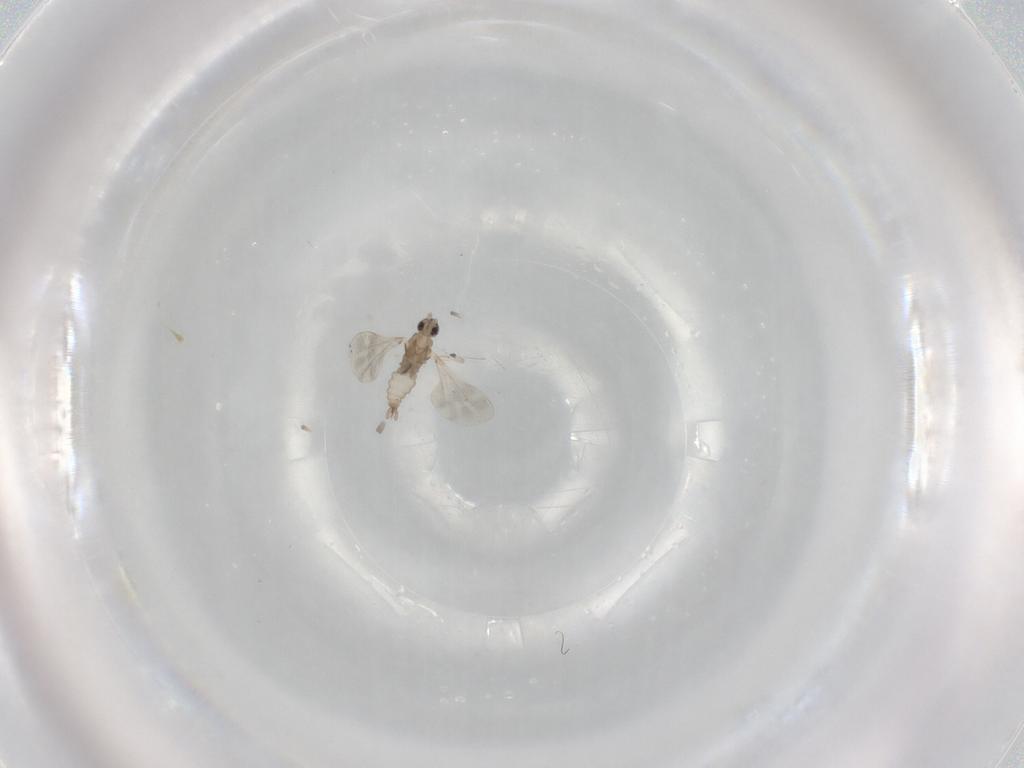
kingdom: Animalia
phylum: Arthropoda
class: Insecta
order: Diptera
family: Cecidomyiidae
